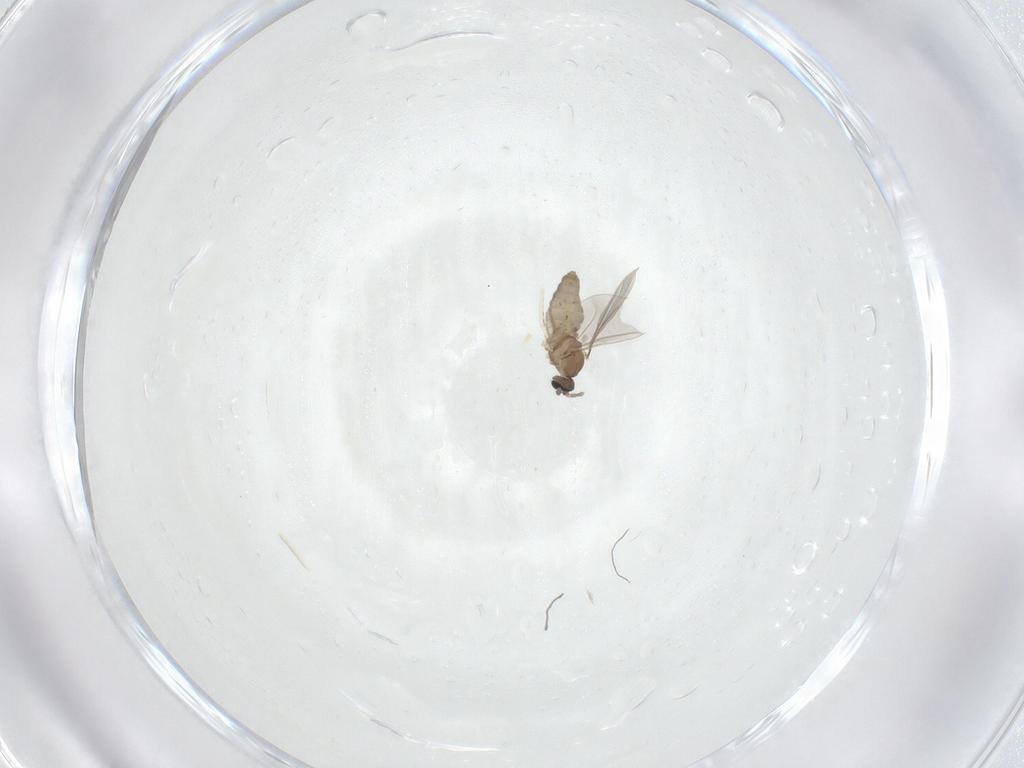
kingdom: Animalia
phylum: Arthropoda
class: Insecta
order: Diptera
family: Cecidomyiidae
